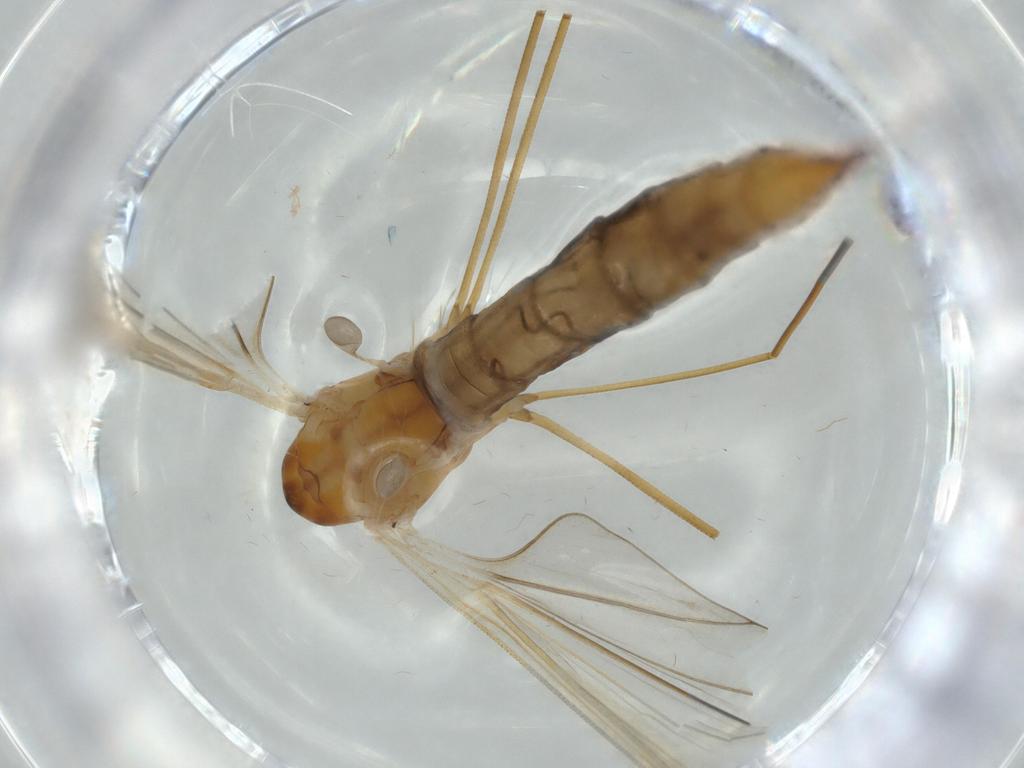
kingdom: Animalia
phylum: Arthropoda
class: Insecta
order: Diptera
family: Limoniidae
